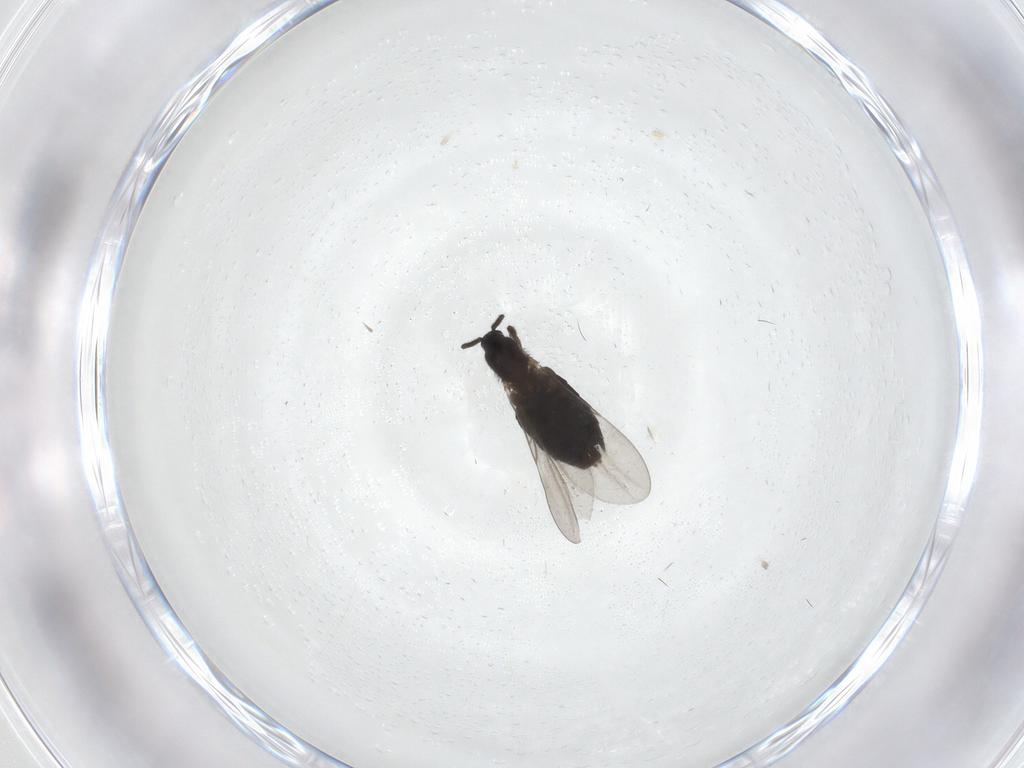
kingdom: Animalia
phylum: Arthropoda
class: Insecta
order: Diptera
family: Scatopsidae
